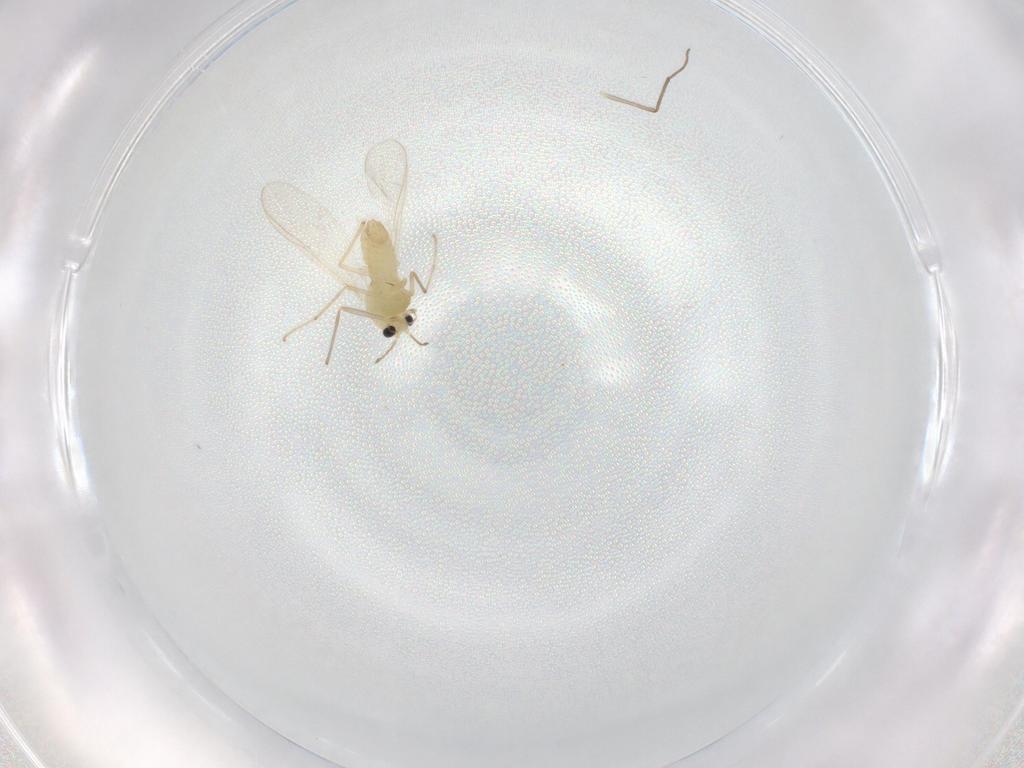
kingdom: Animalia
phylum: Arthropoda
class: Insecta
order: Diptera
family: Chironomidae
